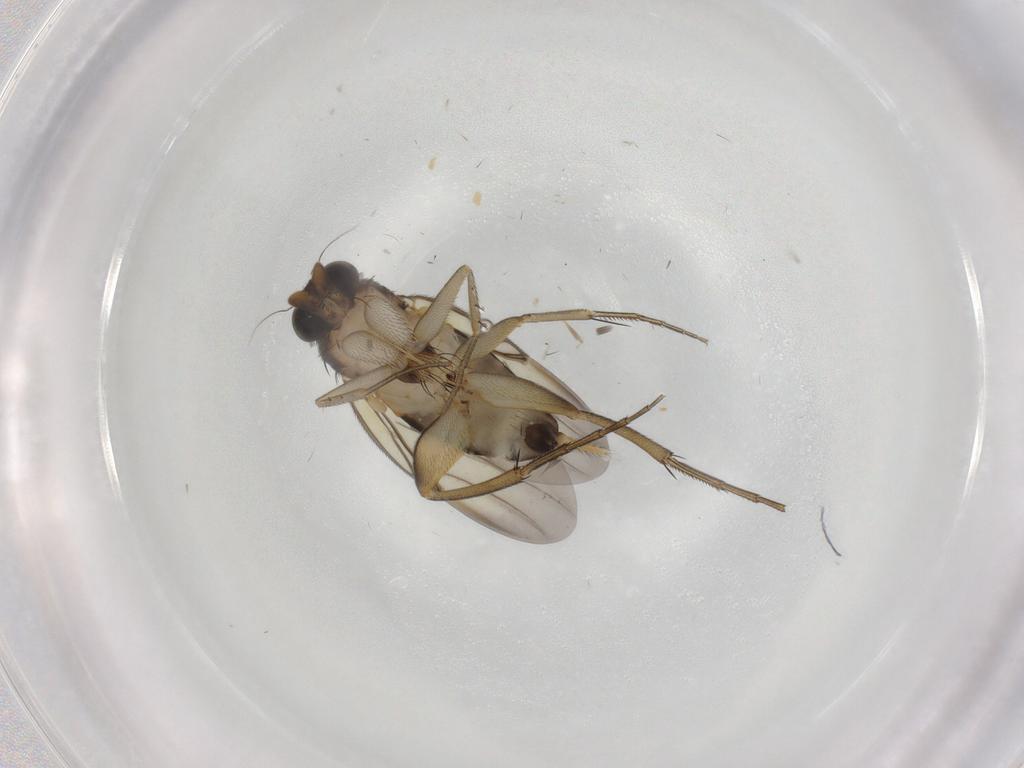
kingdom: Animalia
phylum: Arthropoda
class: Insecta
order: Diptera
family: Phoridae
